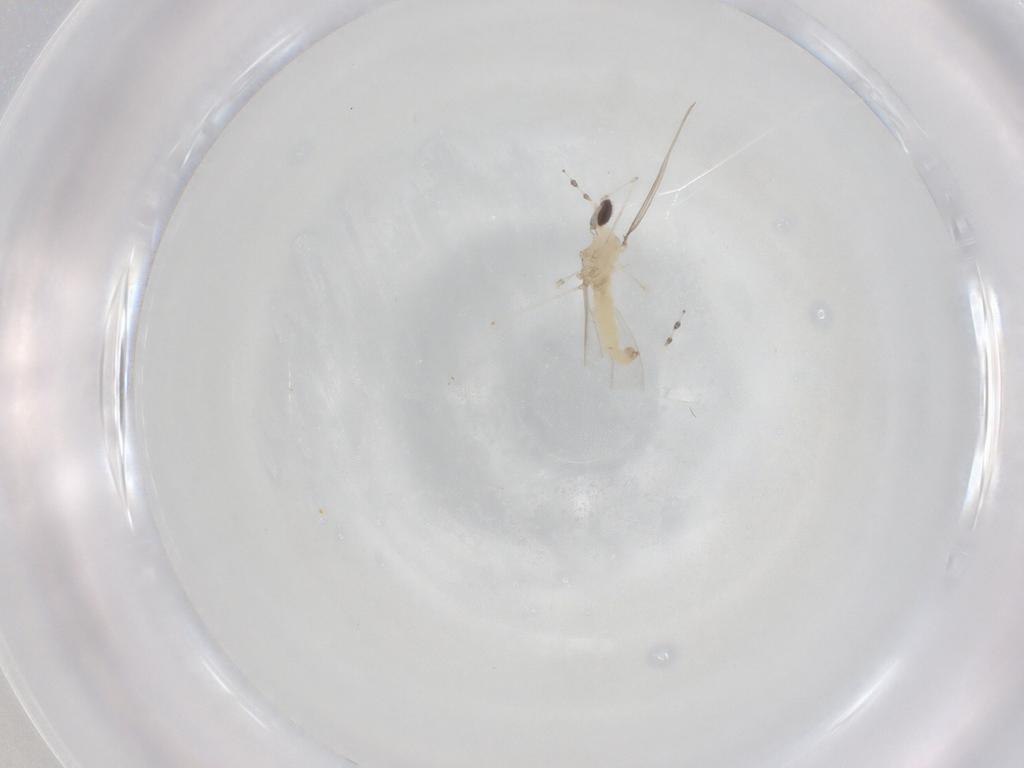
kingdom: Animalia
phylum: Arthropoda
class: Insecta
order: Diptera
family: Cecidomyiidae
